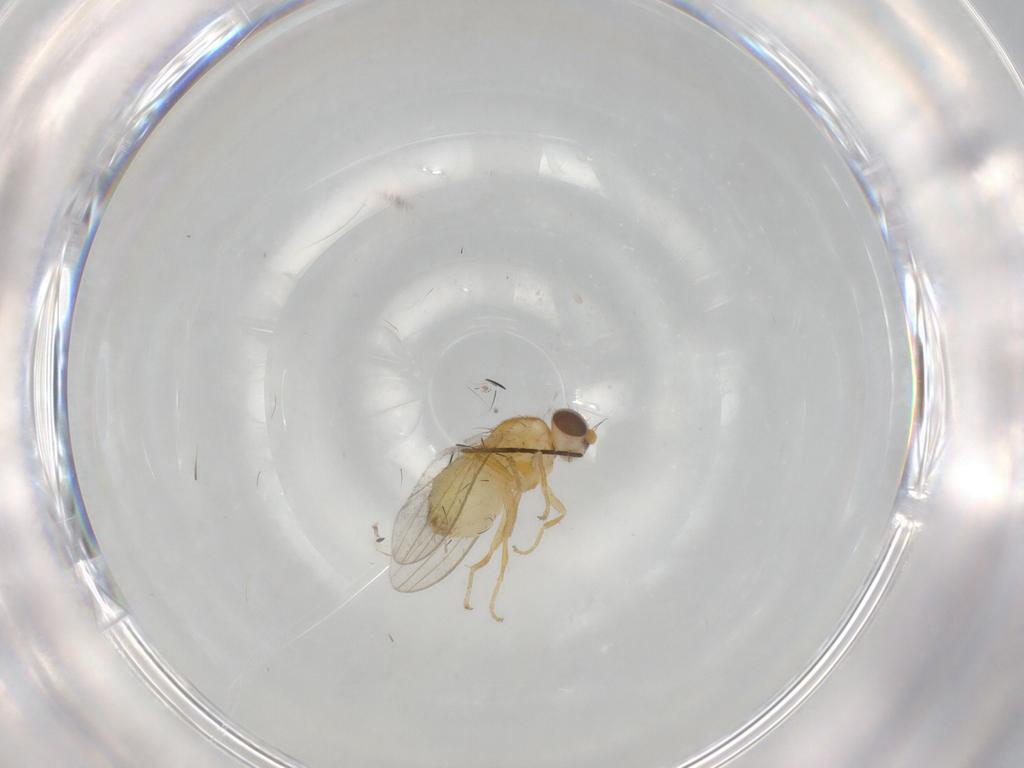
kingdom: Animalia
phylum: Arthropoda
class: Insecta
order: Diptera
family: Chyromyidae
